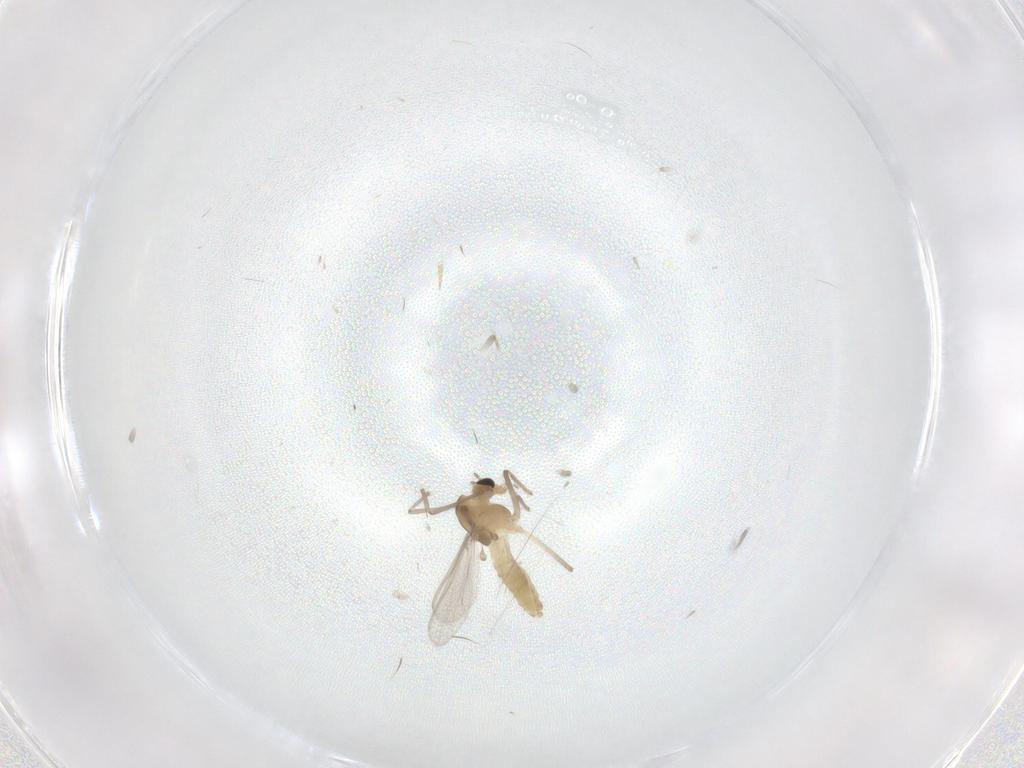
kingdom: Animalia
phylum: Arthropoda
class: Insecta
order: Diptera
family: Chironomidae
